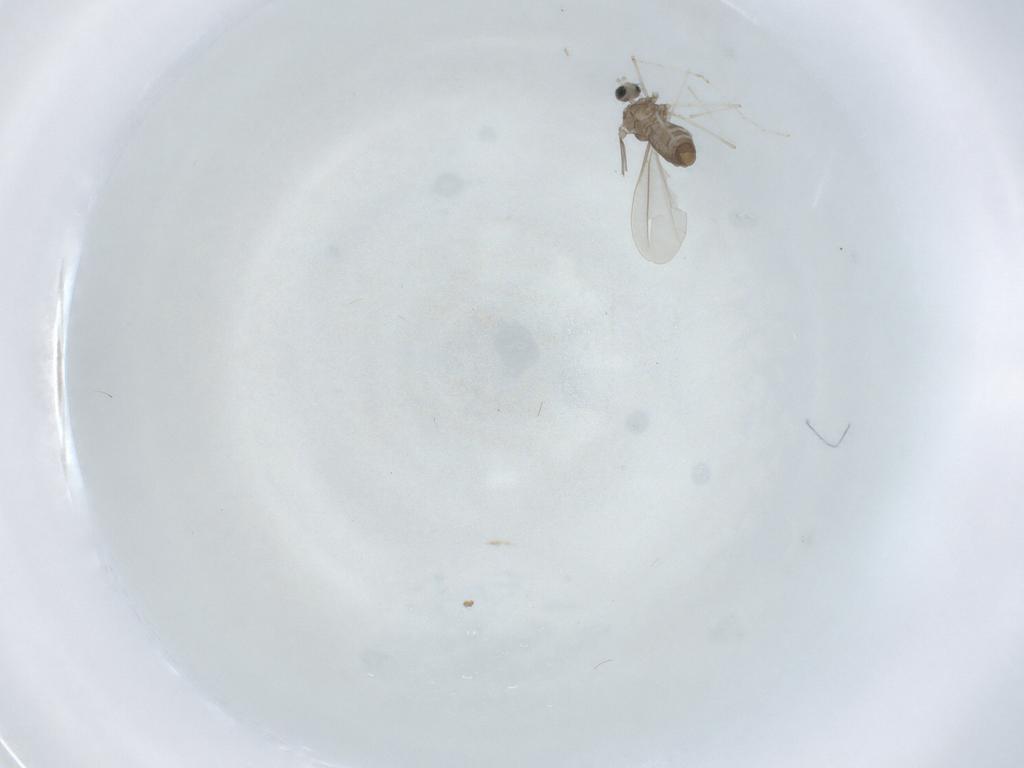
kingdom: Animalia
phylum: Arthropoda
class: Insecta
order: Diptera
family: Cecidomyiidae
